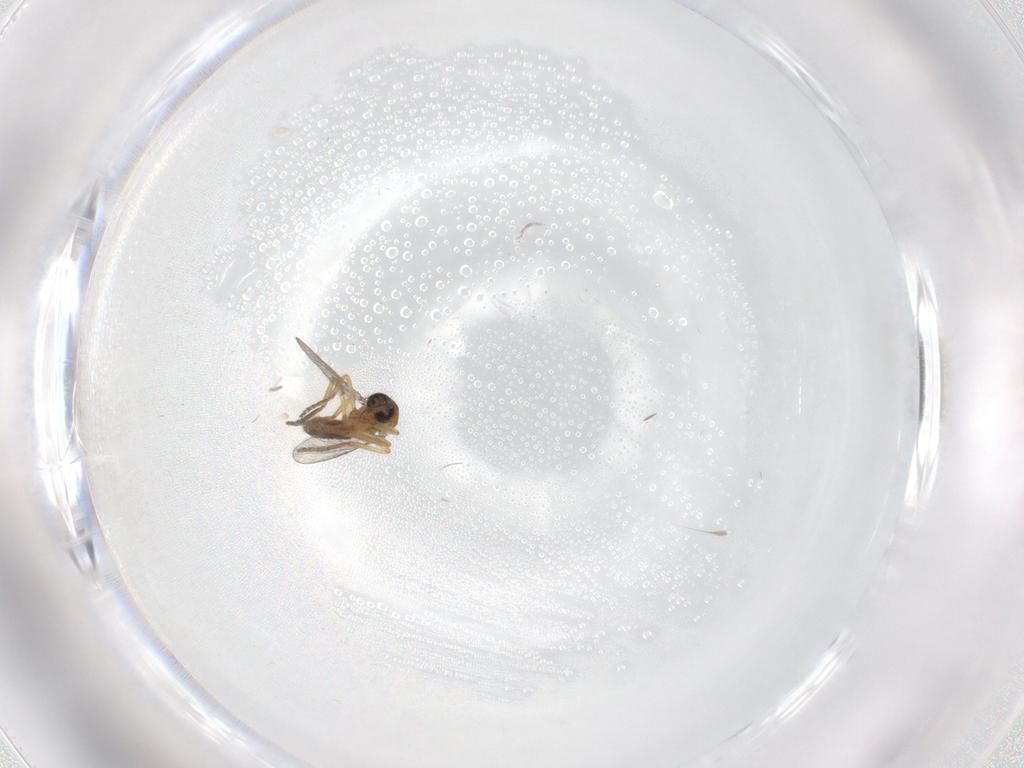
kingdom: Animalia
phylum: Arthropoda
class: Insecta
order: Diptera
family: Ceratopogonidae
